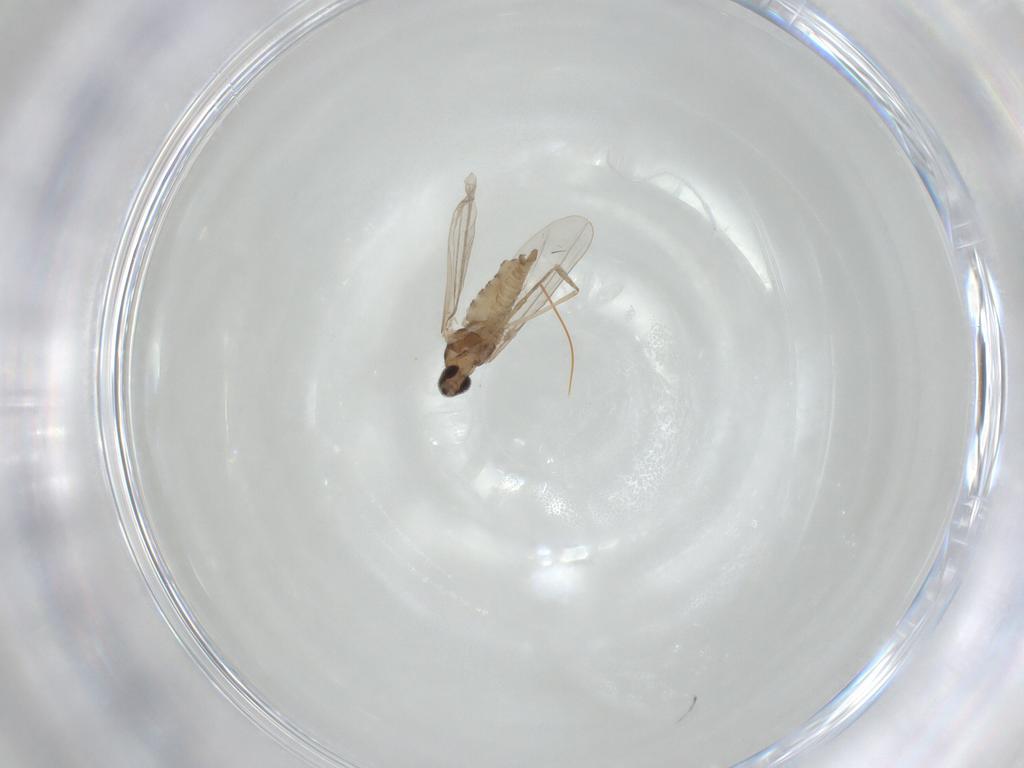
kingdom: Animalia
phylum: Arthropoda
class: Insecta
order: Diptera
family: Cecidomyiidae
